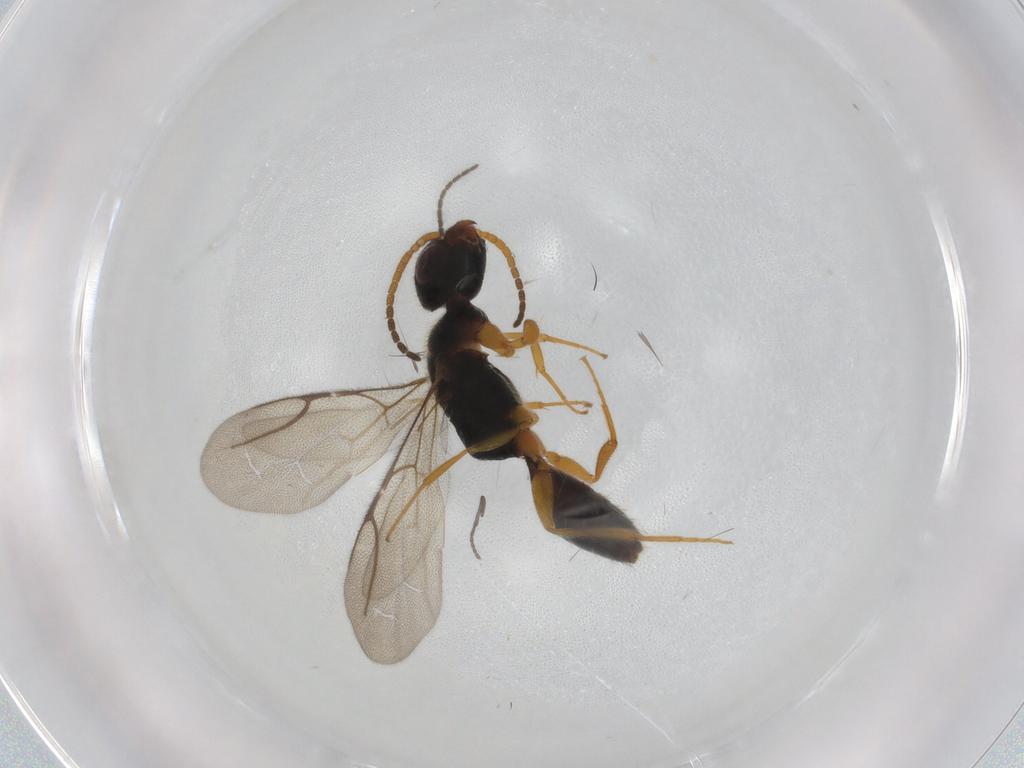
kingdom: Animalia
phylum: Arthropoda
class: Insecta
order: Hymenoptera
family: Bethylidae
